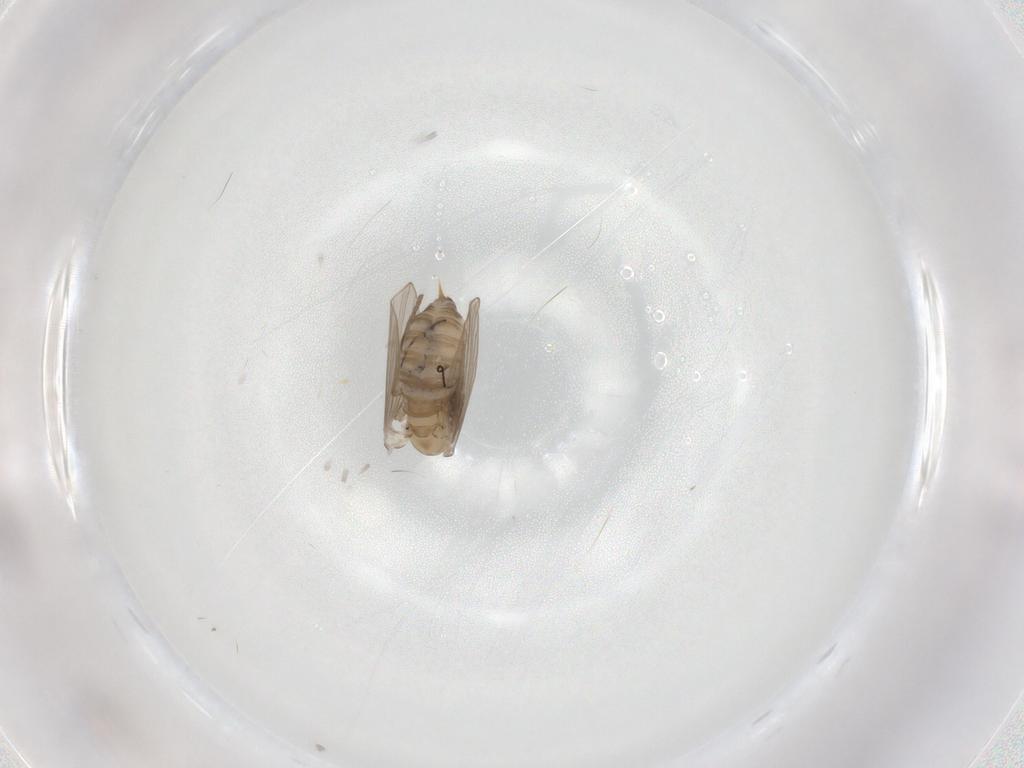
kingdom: Animalia
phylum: Arthropoda
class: Insecta
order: Diptera
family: Psychodidae
